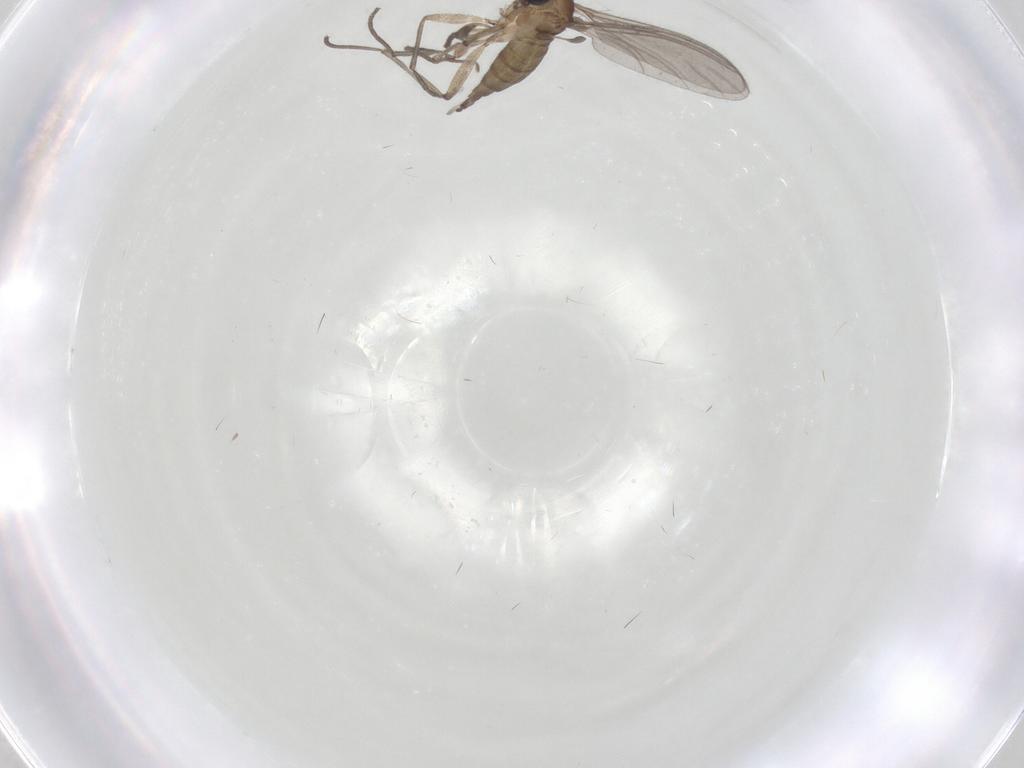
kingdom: Animalia
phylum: Arthropoda
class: Insecta
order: Diptera
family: Sciaridae
